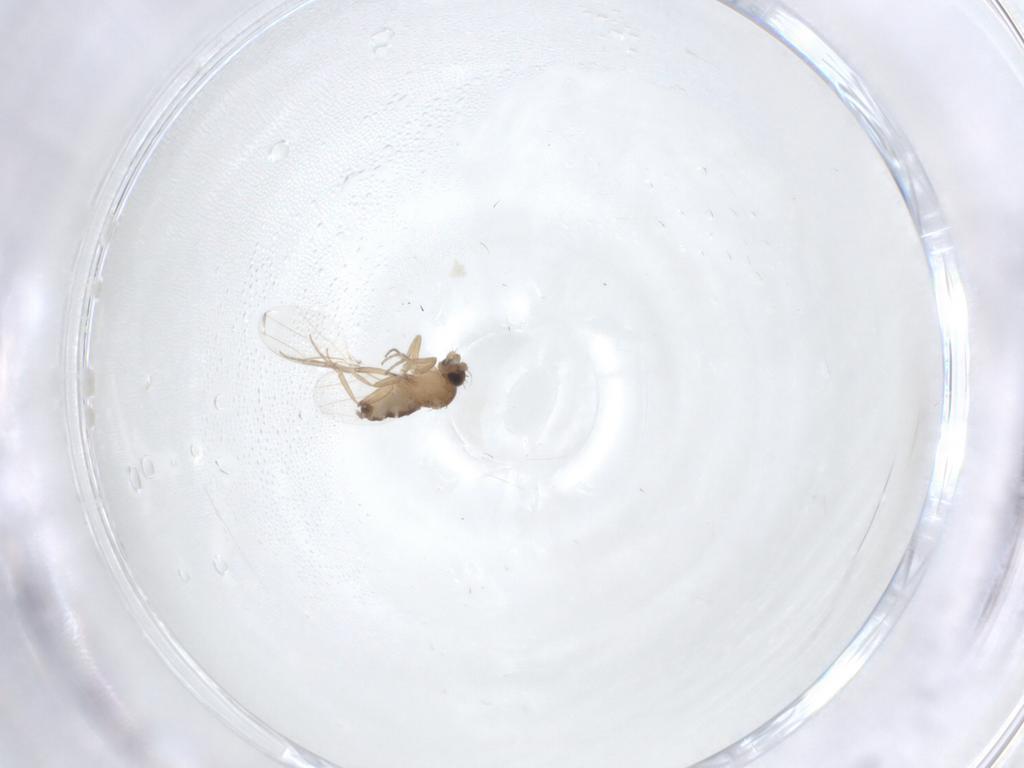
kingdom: Animalia
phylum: Arthropoda
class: Insecta
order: Diptera
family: Phoridae
